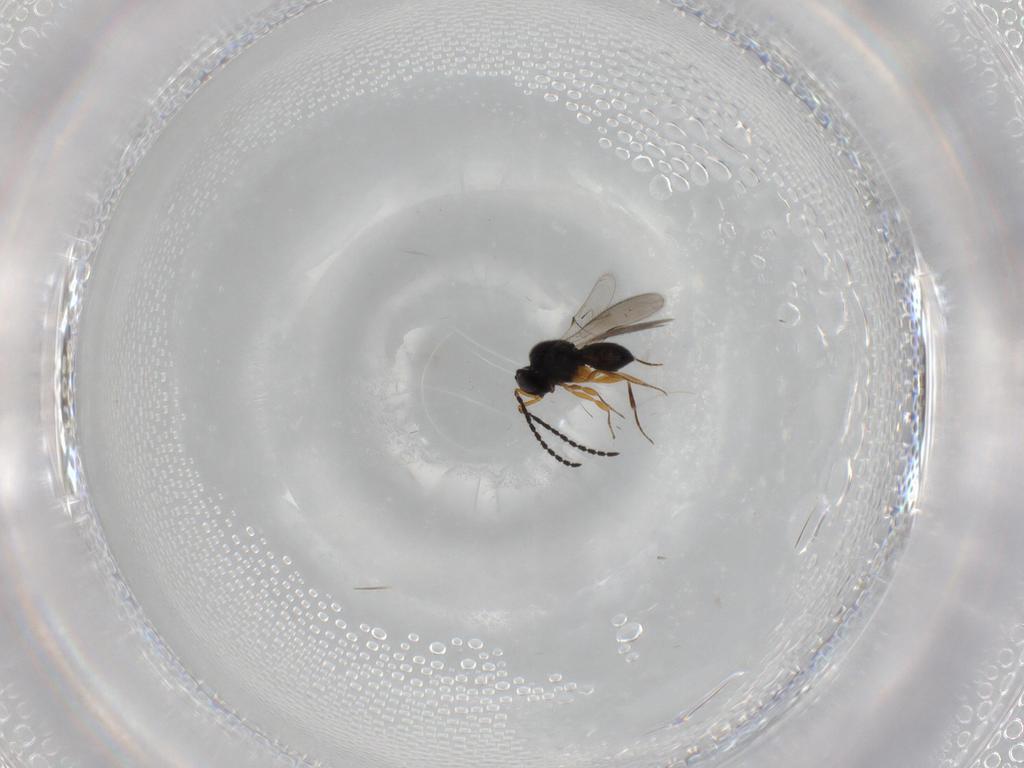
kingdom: Animalia
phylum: Arthropoda
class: Insecta
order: Hymenoptera
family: Scelionidae
